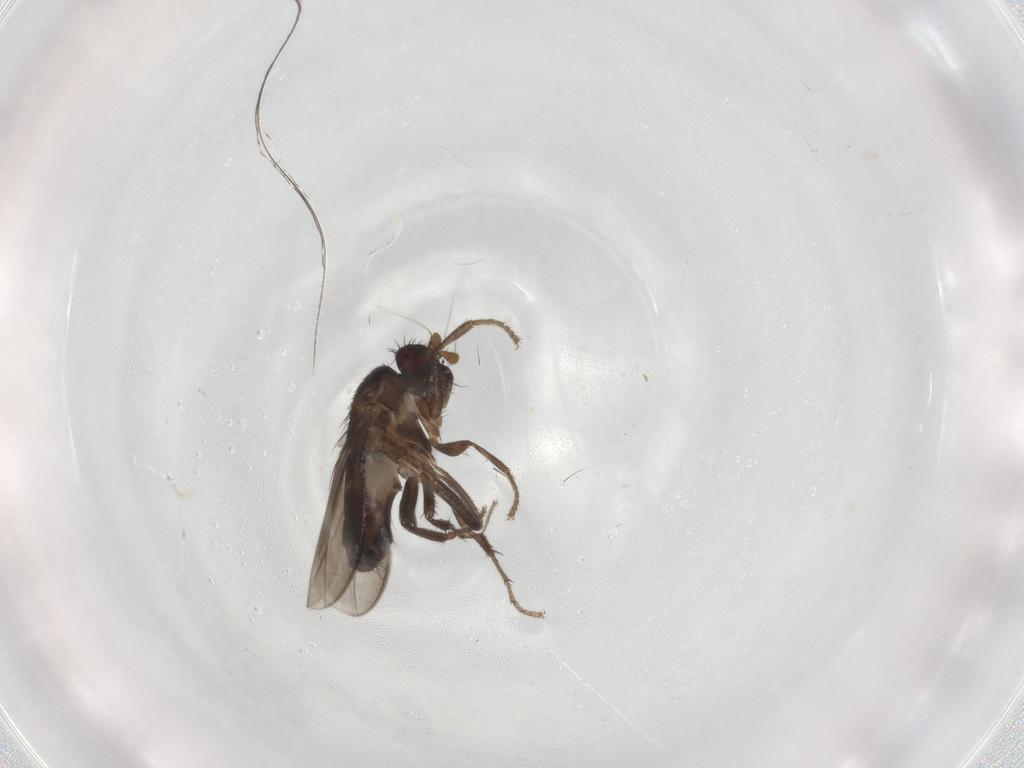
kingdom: Animalia
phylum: Arthropoda
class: Insecta
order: Diptera
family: Sphaeroceridae
